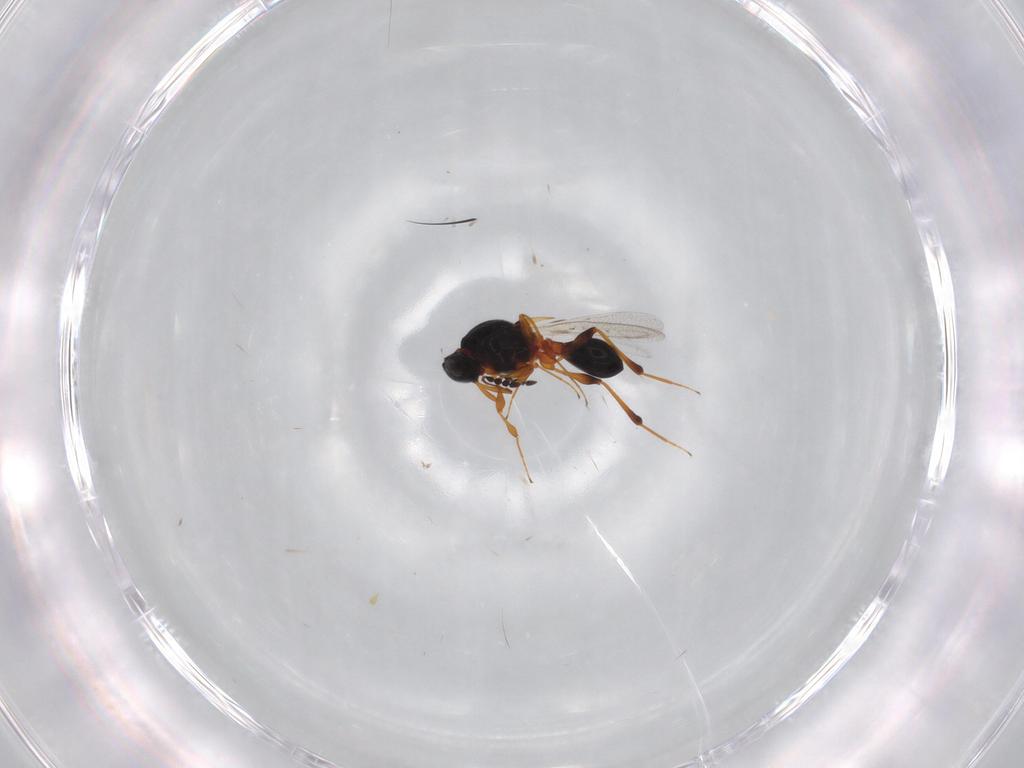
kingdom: Animalia
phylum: Arthropoda
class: Insecta
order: Hymenoptera
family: Platygastridae
